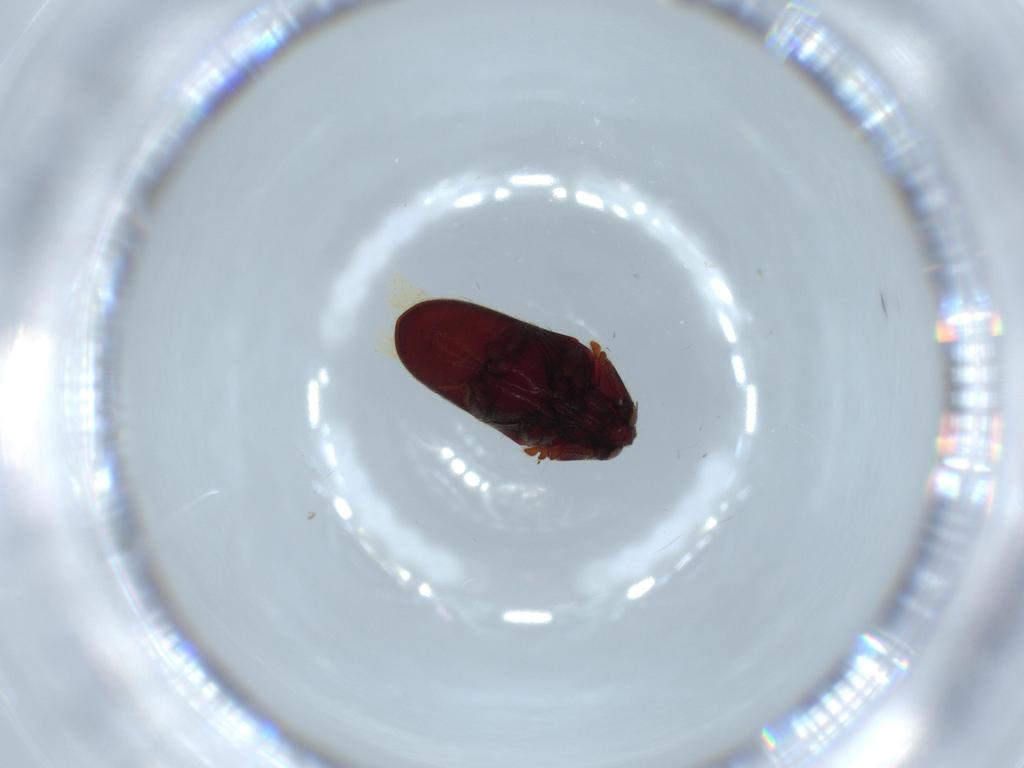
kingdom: Animalia
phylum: Arthropoda
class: Insecta
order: Coleoptera
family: Throscidae
